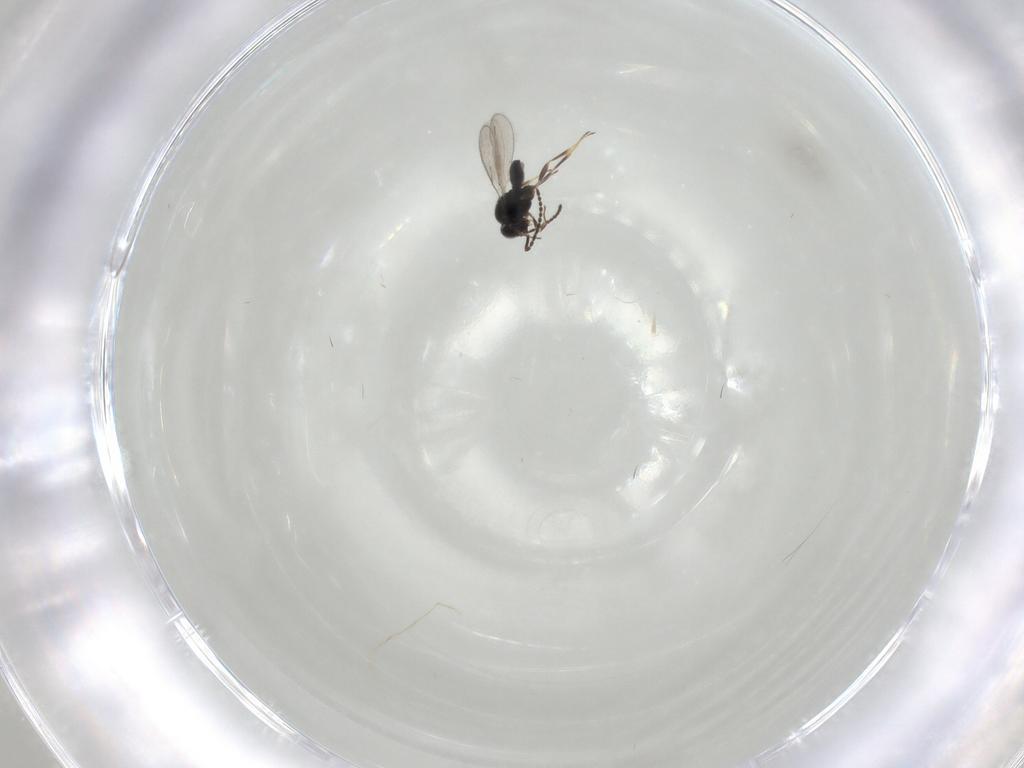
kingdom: Animalia
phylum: Arthropoda
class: Insecta
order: Hymenoptera
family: Scelionidae
